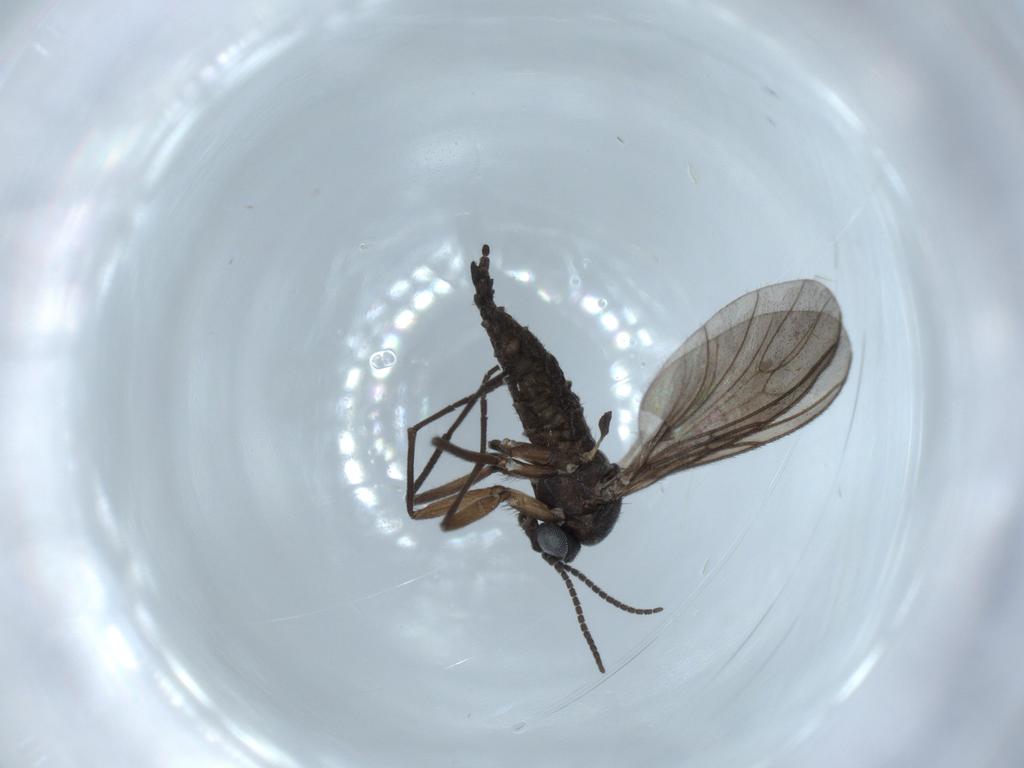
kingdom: Animalia
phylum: Arthropoda
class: Insecta
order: Diptera
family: Sciaridae
